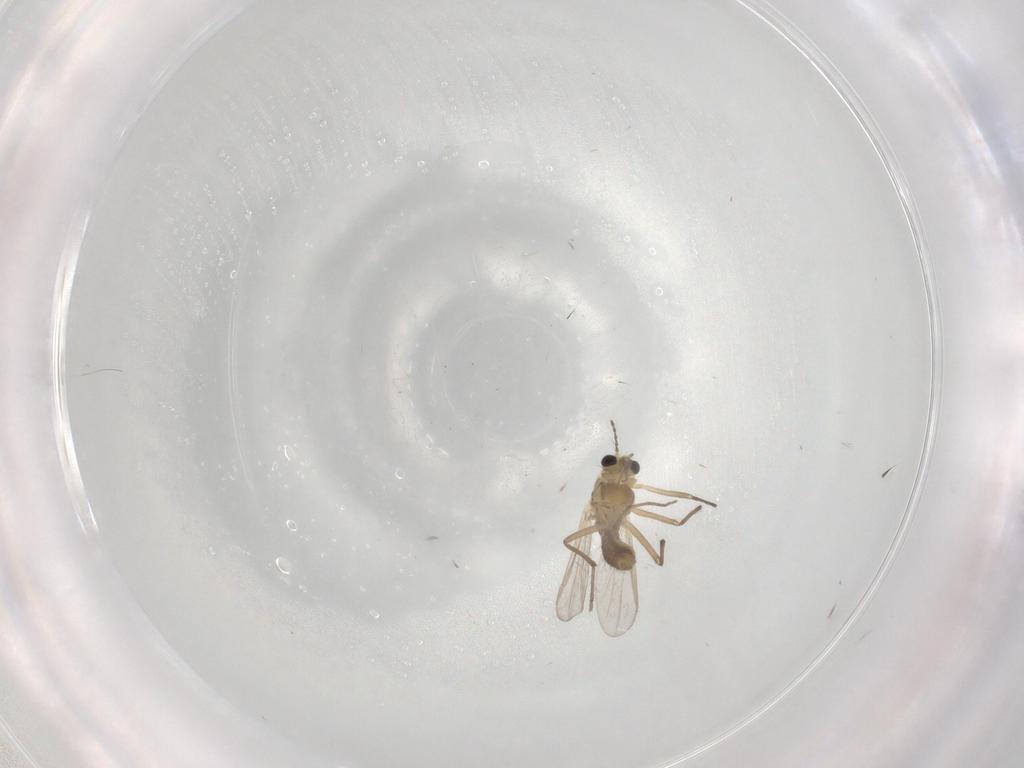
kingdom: Animalia
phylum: Arthropoda
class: Insecta
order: Diptera
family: Chironomidae
